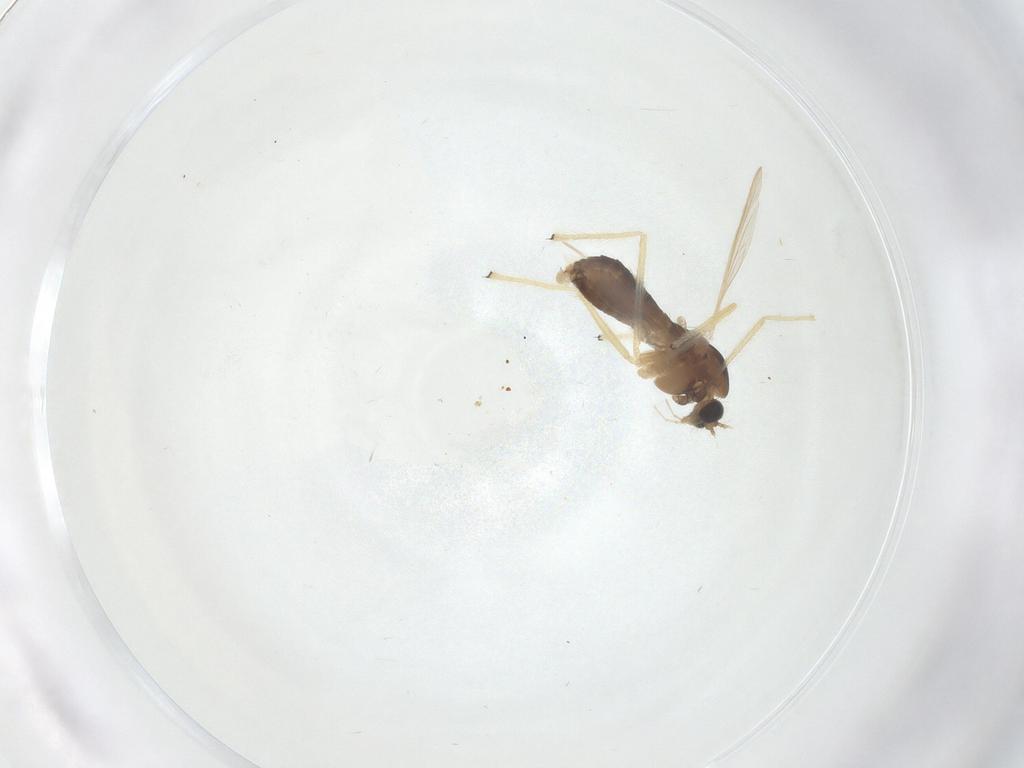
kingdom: Animalia
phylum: Arthropoda
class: Insecta
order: Diptera
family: Chironomidae
